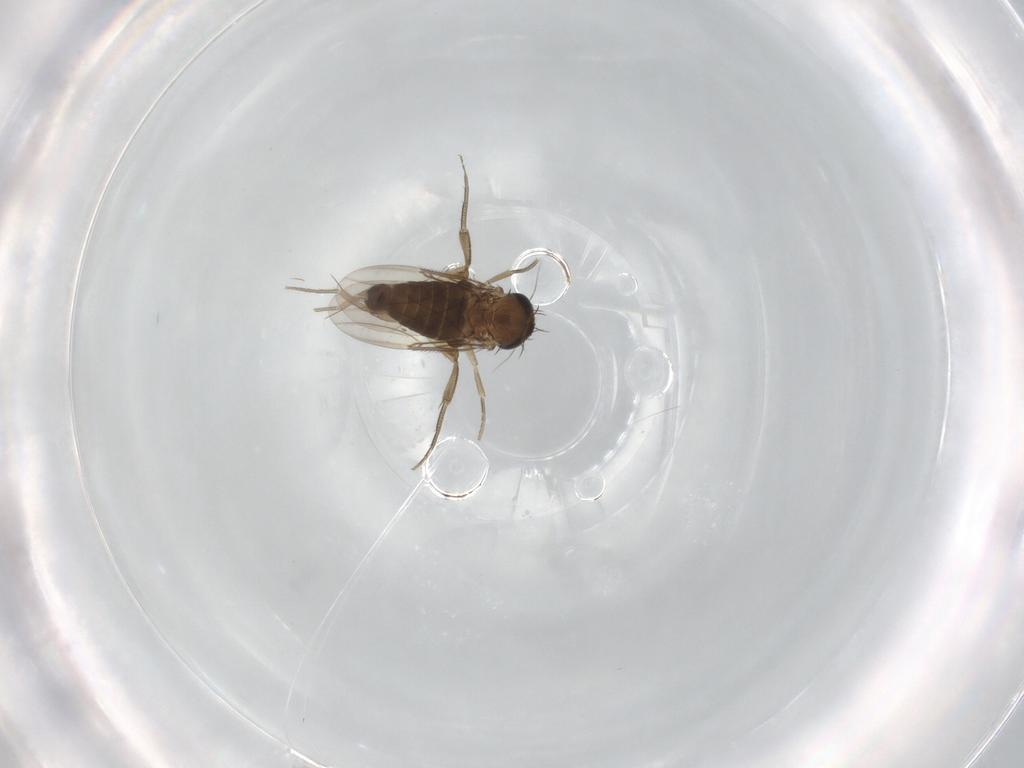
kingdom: Animalia
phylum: Arthropoda
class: Insecta
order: Diptera
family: Phoridae
